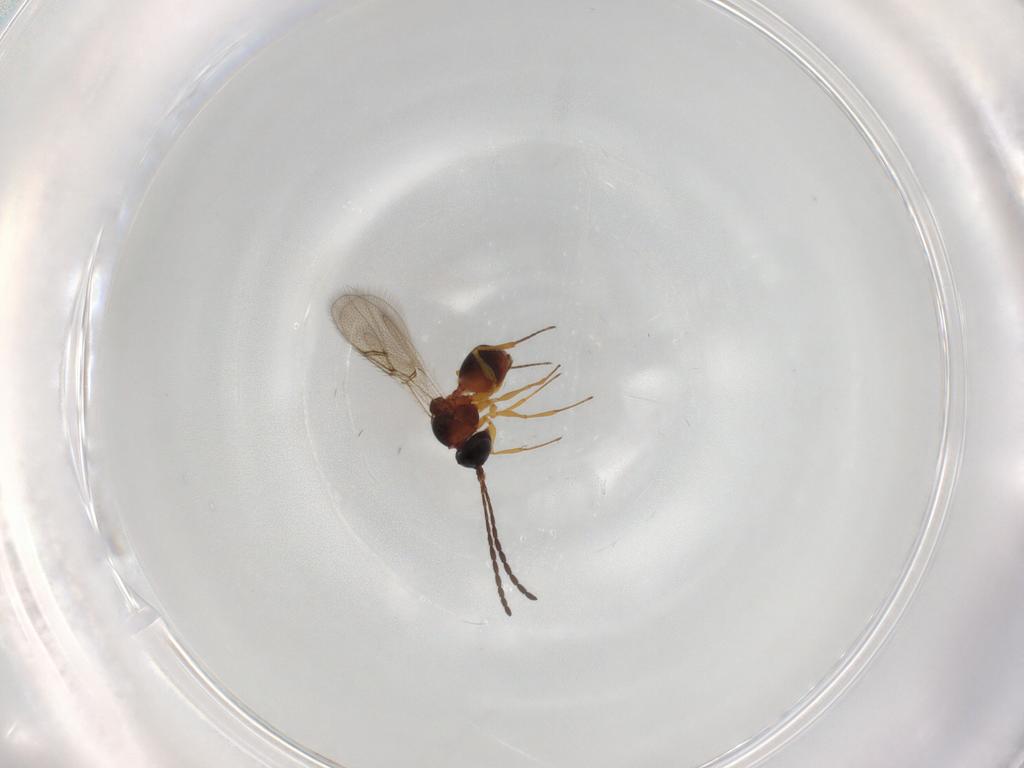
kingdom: Animalia
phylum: Arthropoda
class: Insecta
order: Hymenoptera
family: Figitidae
